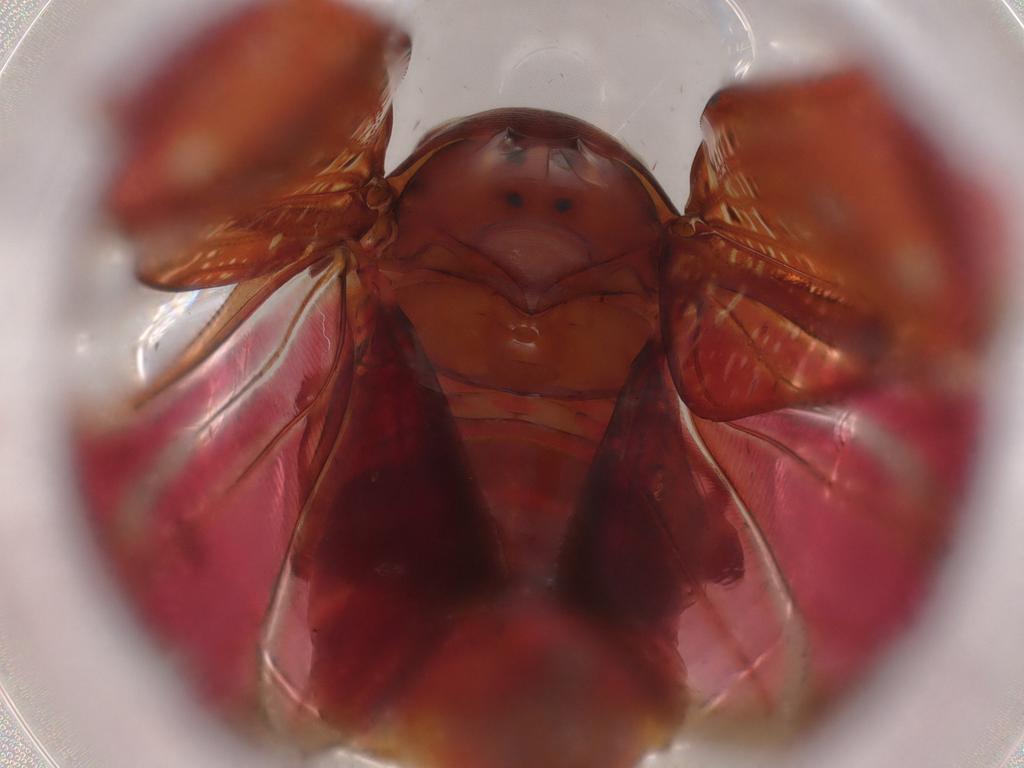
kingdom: Animalia
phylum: Arthropoda
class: Insecta
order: Hemiptera
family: Cicadellidae
